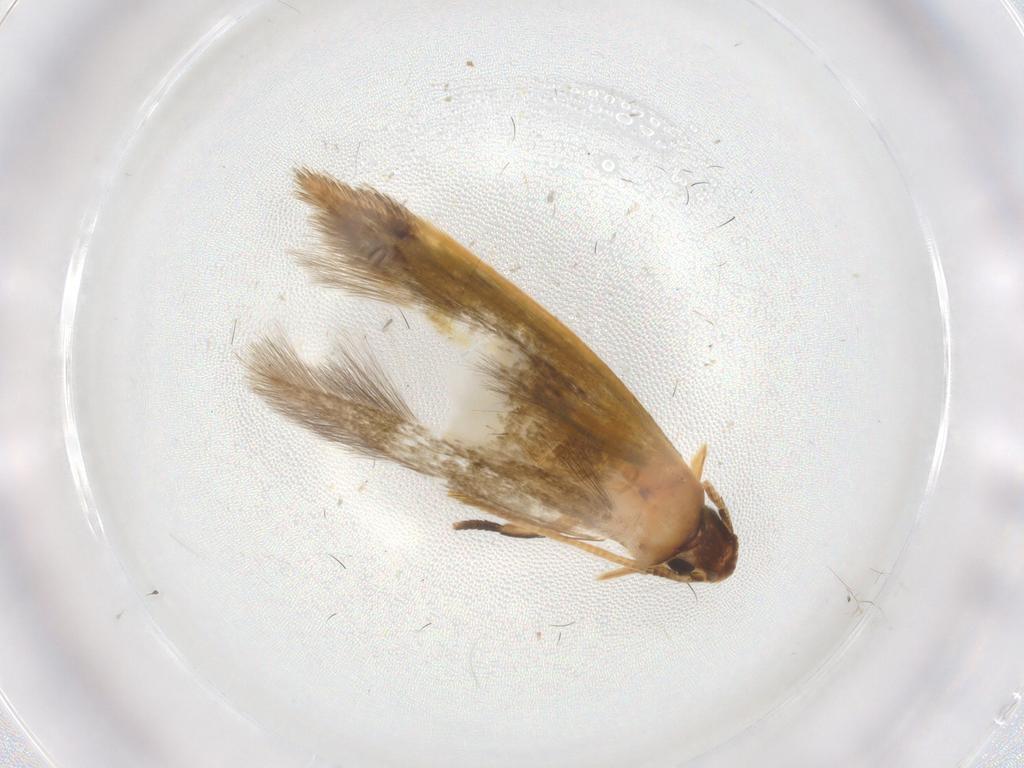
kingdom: Animalia
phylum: Arthropoda
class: Insecta
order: Lepidoptera
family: Tineidae
